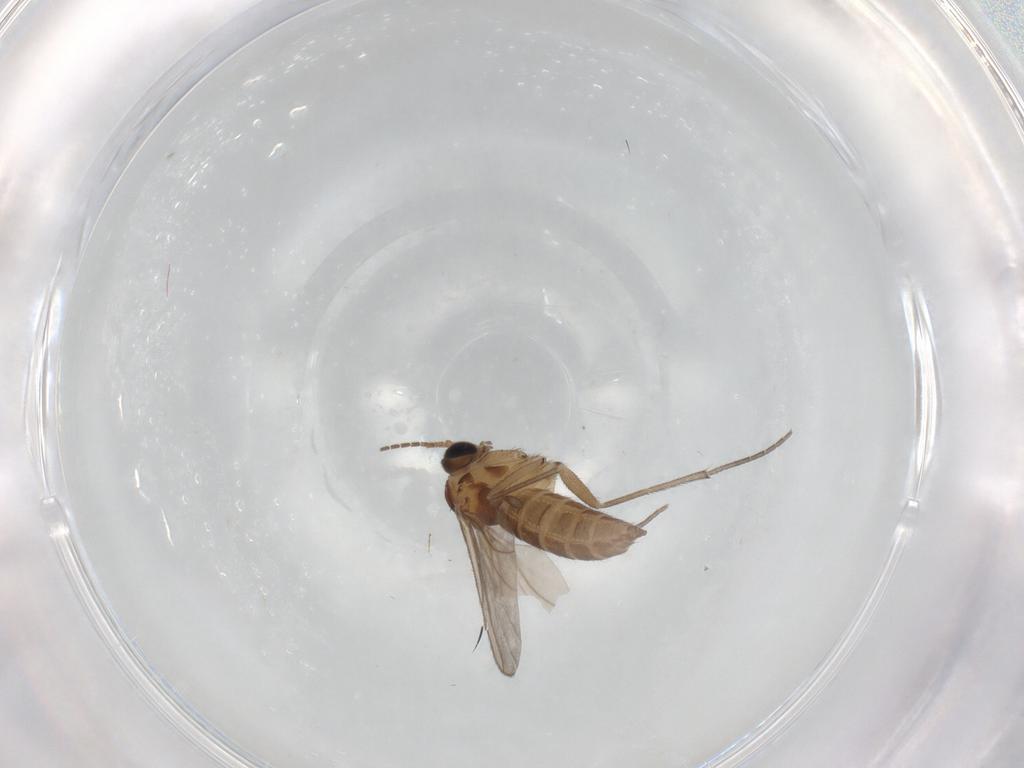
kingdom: Animalia
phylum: Arthropoda
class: Insecta
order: Diptera
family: Sciaridae
